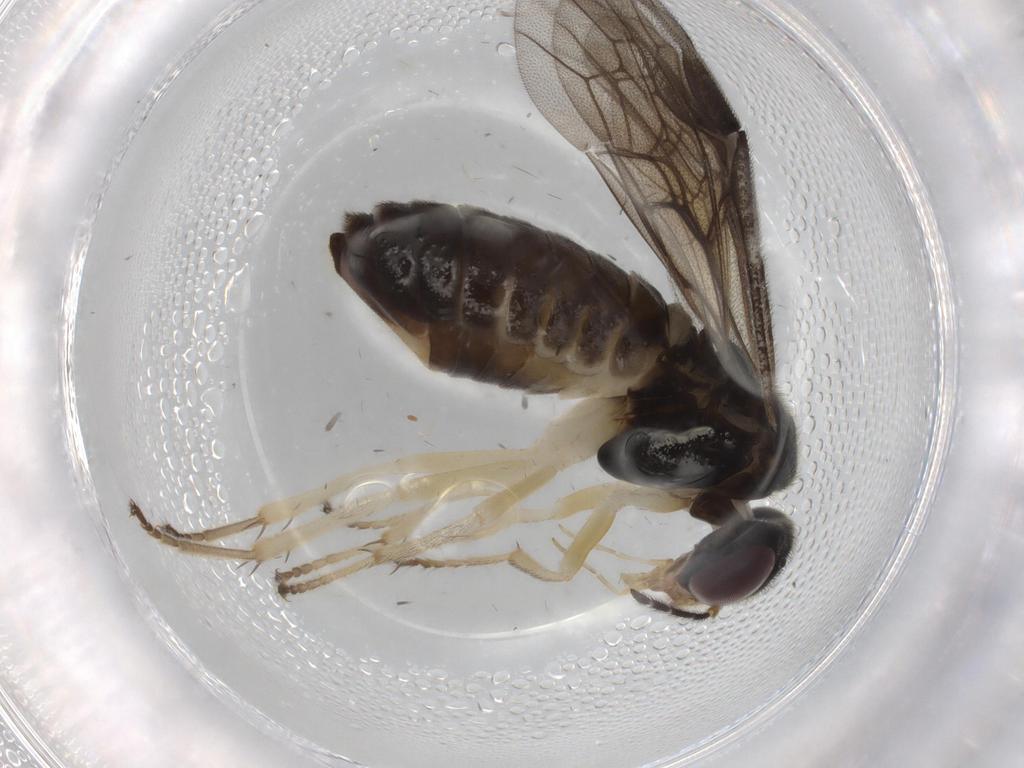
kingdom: Animalia
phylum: Arthropoda
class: Insecta
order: Hymenoptera
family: Pergidae
